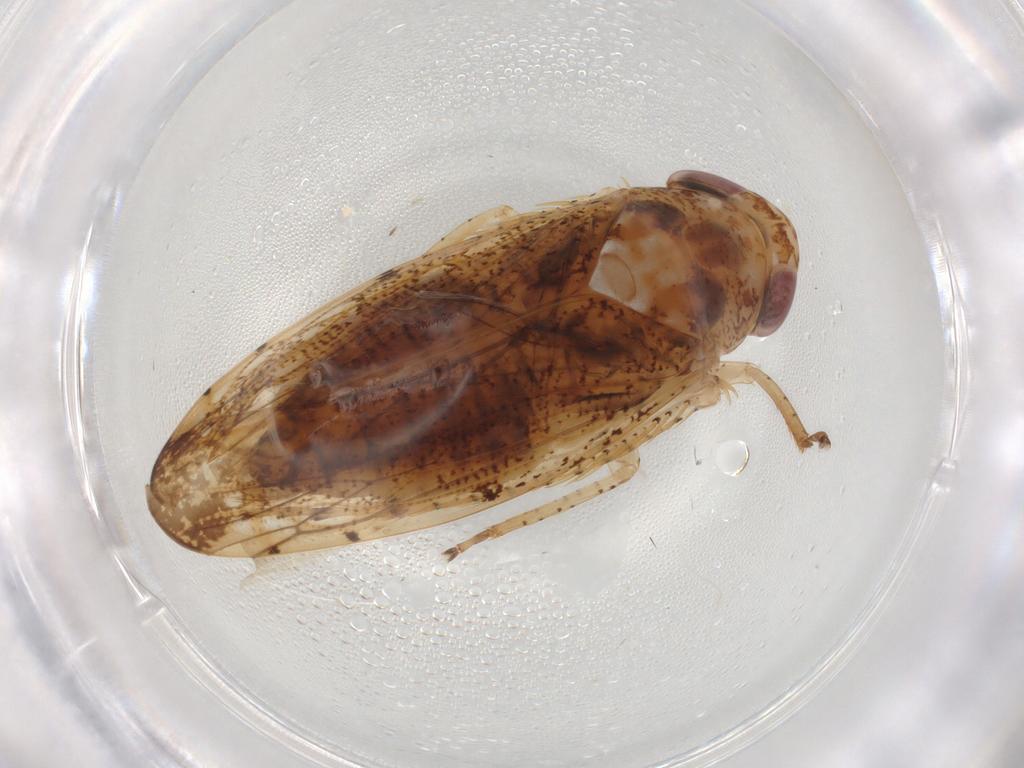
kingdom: Animalia
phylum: Arthropoda
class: Insecta
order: Hemiptera
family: Cicadellidae
